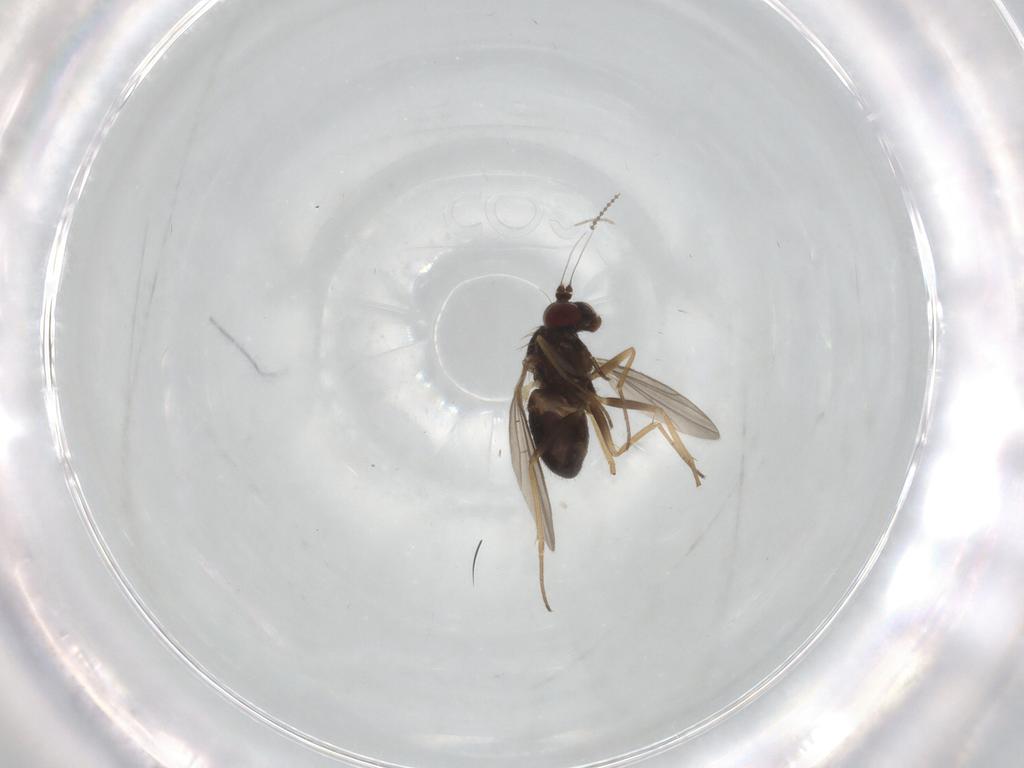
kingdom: Animalia
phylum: Arthropoda
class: Insecta
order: Diptera
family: Dolichopodidae
